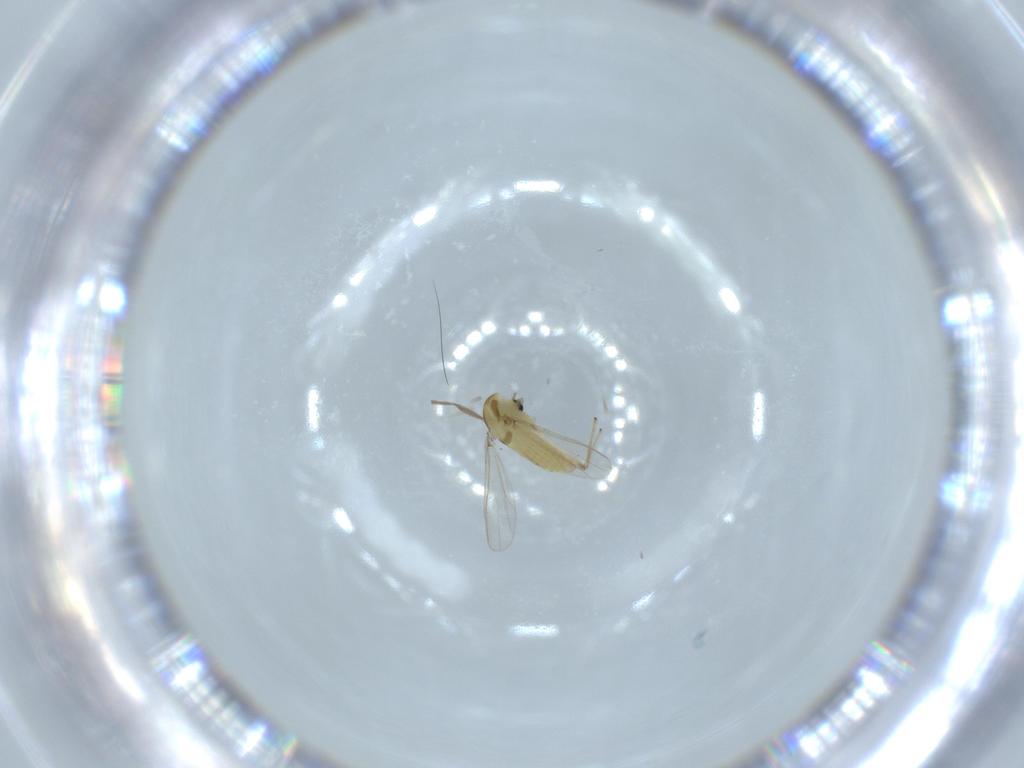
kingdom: Animalia
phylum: Arthropoda
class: Insecta
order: Diptera
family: Chironomidae
